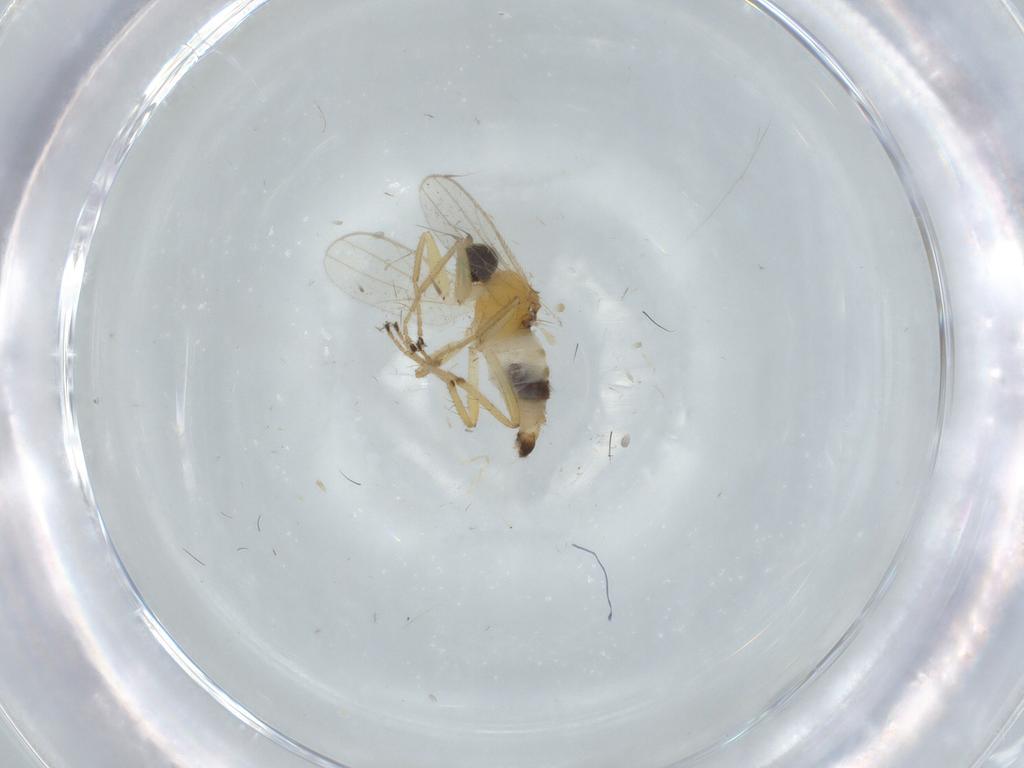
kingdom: Animalia
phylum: Arthropoda
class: Insecta
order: Diptera
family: Hybotidae
